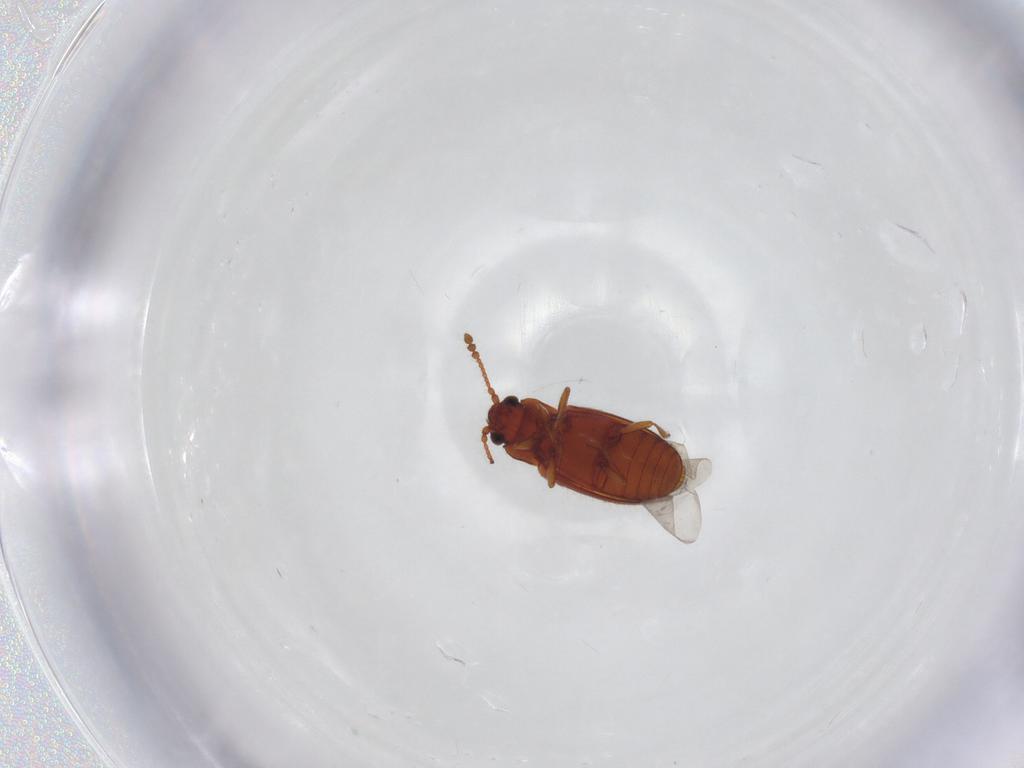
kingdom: Animalia
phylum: Arthropoda
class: Insecta
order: Coleoptera
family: Cryptophagidae
